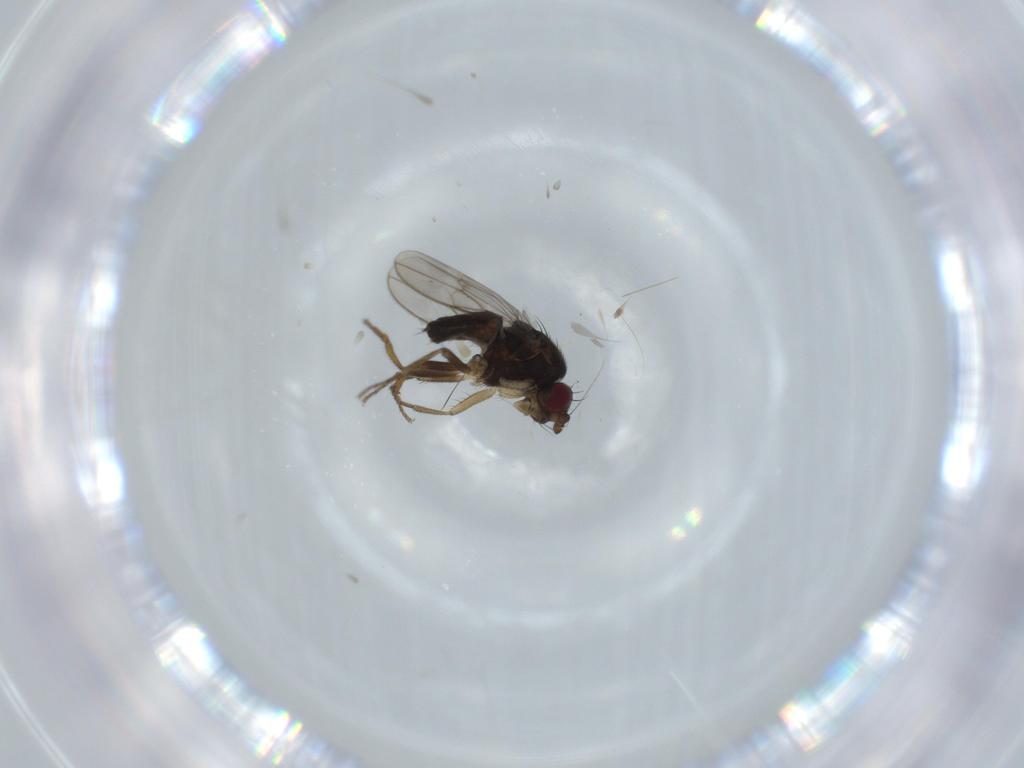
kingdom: Animalia
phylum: Arthropoda
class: Insecta
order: Diptera
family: Sphaeroceridae
